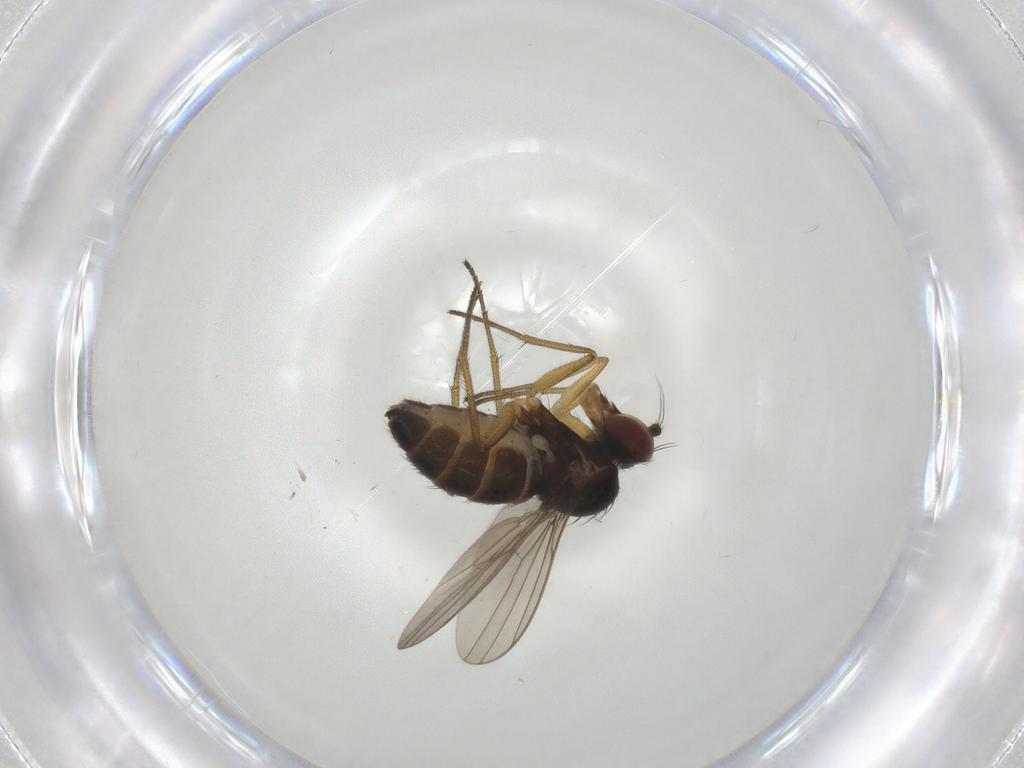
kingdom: Animalia
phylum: Arthropoda
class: Insecta
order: Diptera
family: Dolichopodidae
